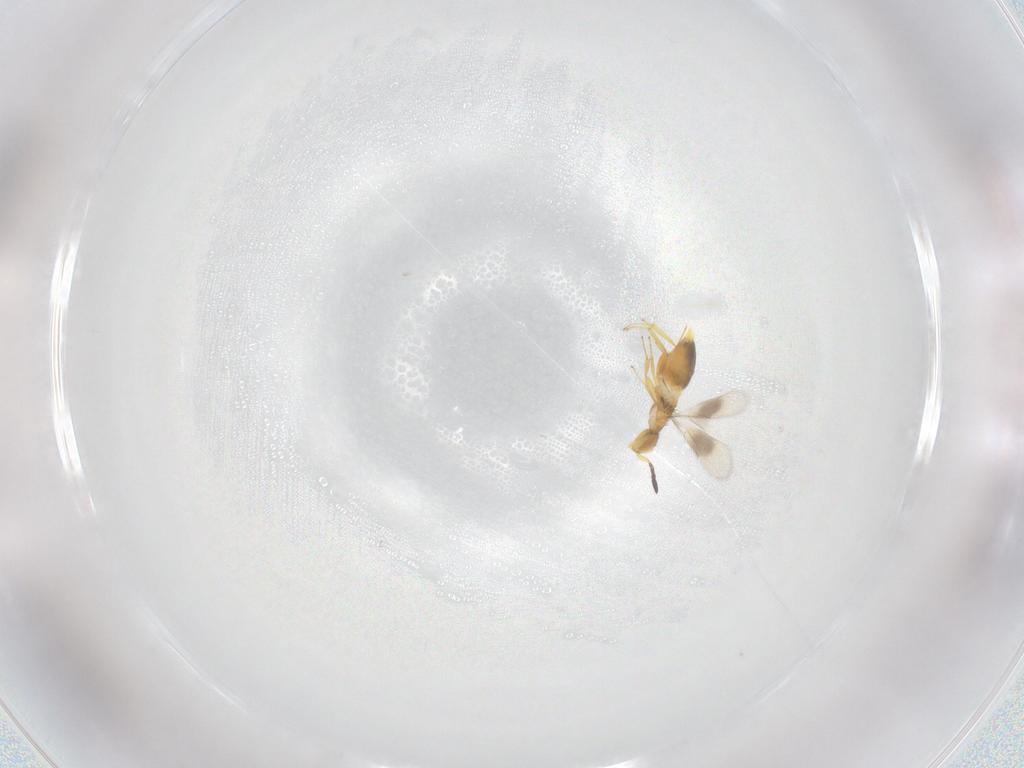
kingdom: Animalia
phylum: Arthropoda
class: Insecta
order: Hymenoptera
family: Encyrtidae
